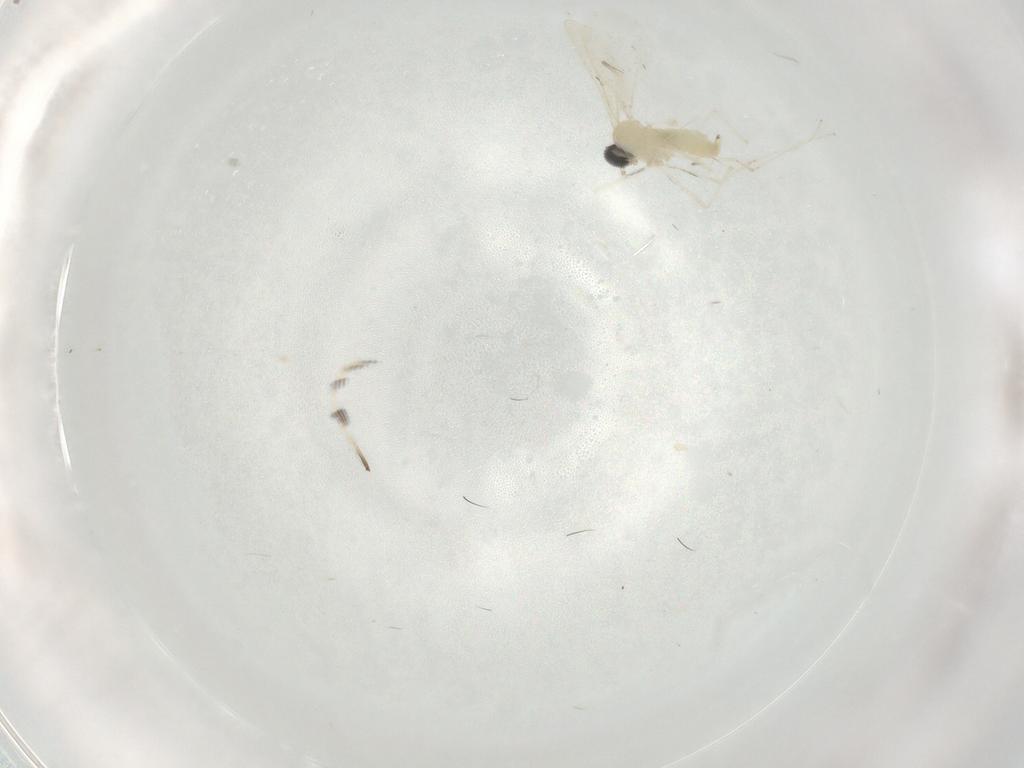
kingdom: Animalia
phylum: Arthropoda
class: Insecta
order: Diptera
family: Cecidomyiidae
